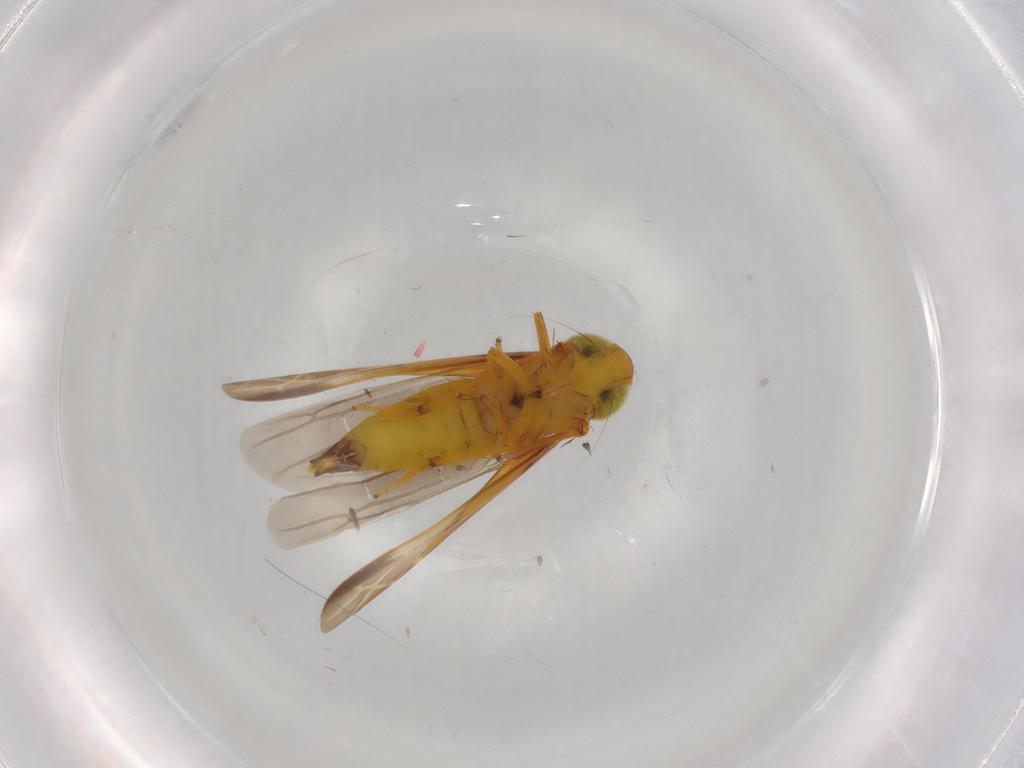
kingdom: Animalia
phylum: Arthropoda
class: Insecta
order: Hemiptera
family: Cicadellidae
